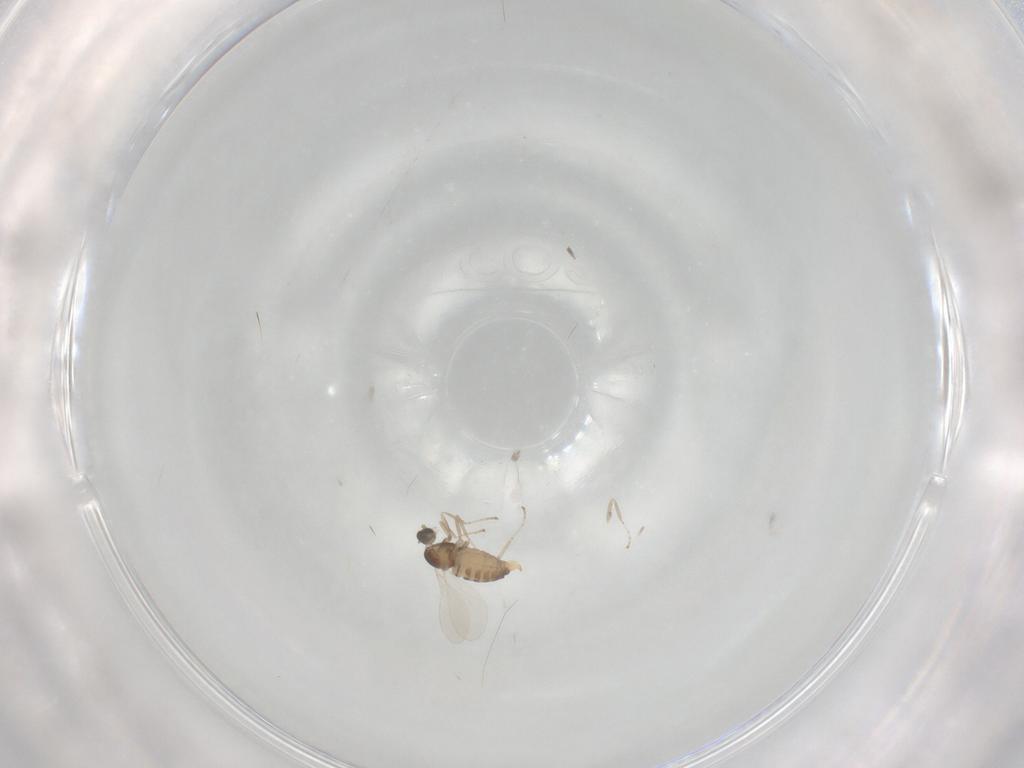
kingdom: Animalia
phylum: Arthropoda
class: Insecta
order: Diptera
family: Cecidomyiidae
